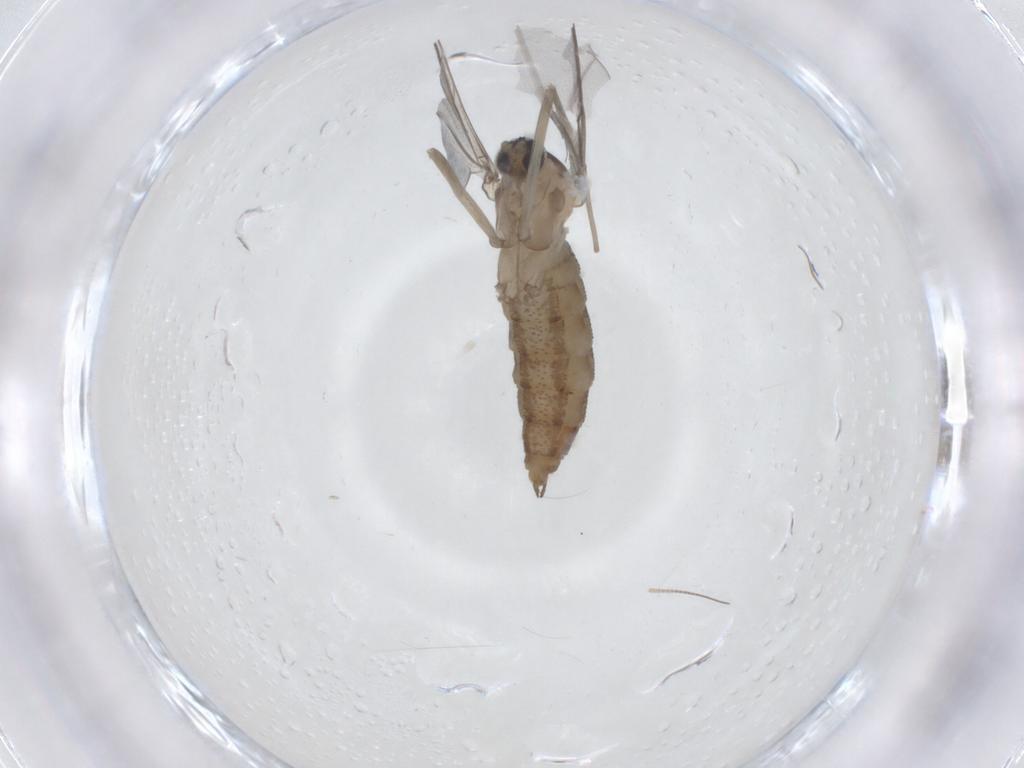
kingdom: Animalia
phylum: Arthropoda
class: Insecta
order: Diptera
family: Cecidomyiidae
